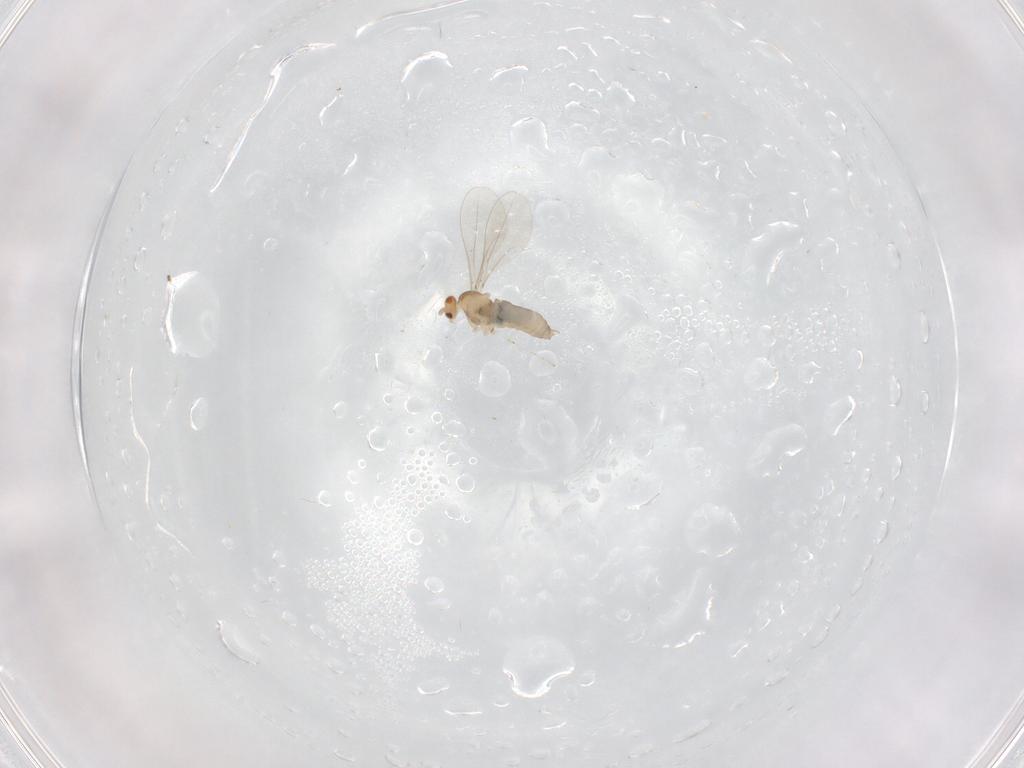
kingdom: Animalia
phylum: Arthropoda
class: Insecta
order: Diptera
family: Cecidomyiidae
